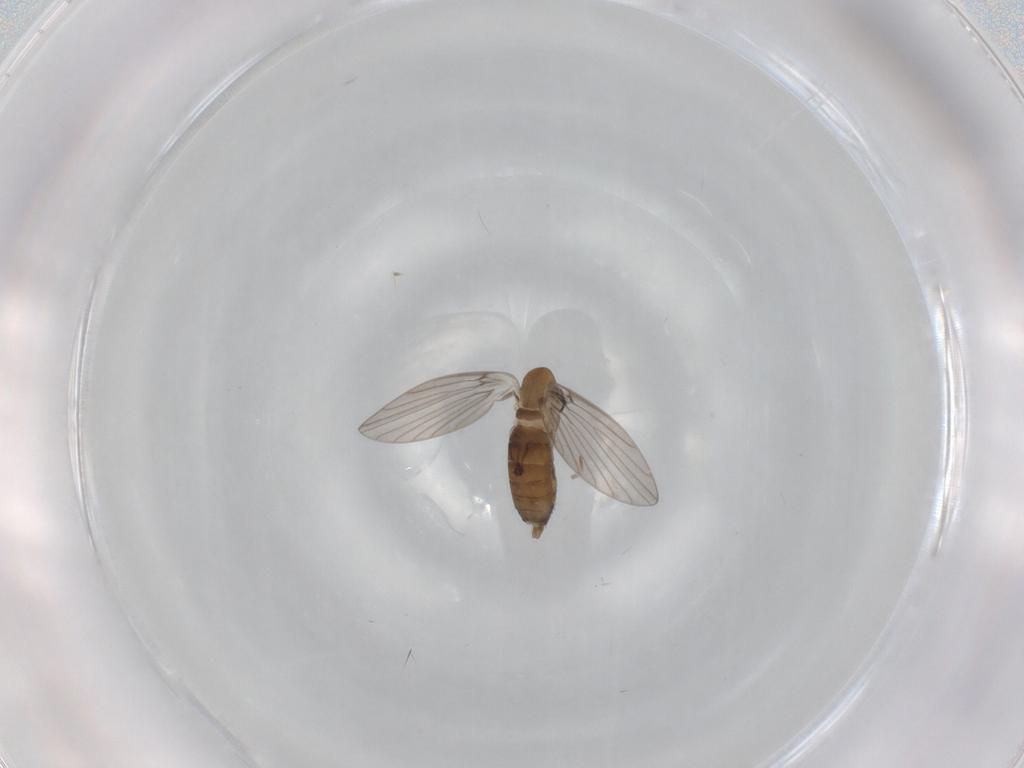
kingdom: Animalia
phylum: Arthropoda
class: Insecta
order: Diptera
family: Psychodidae
